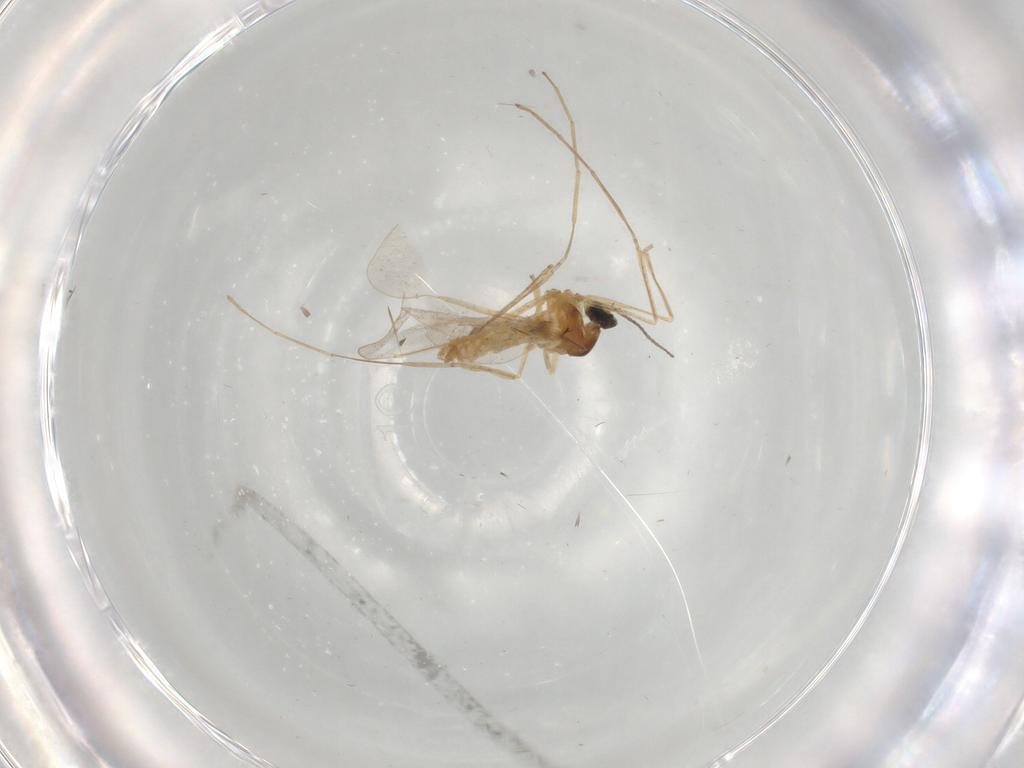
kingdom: Animalia
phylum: Arthropoda
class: Insecta
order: Diptera
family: Cecidomyiidae
